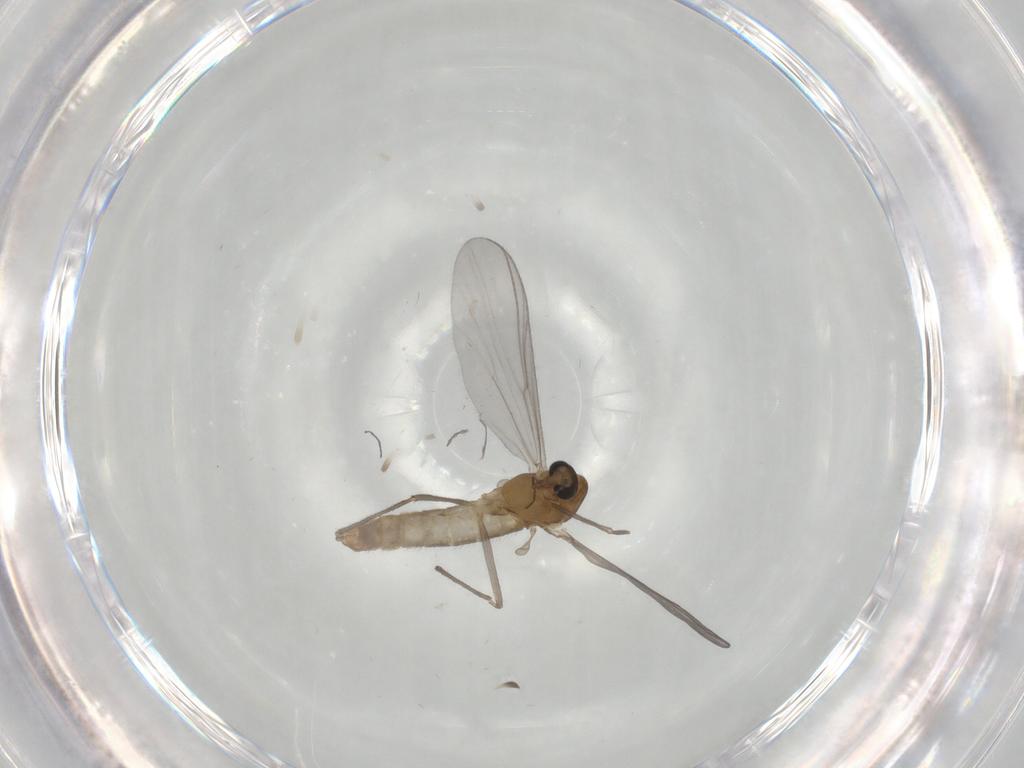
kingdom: Animalia
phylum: Arthropoda
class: Insecta
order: Diptera
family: Chironomidae
